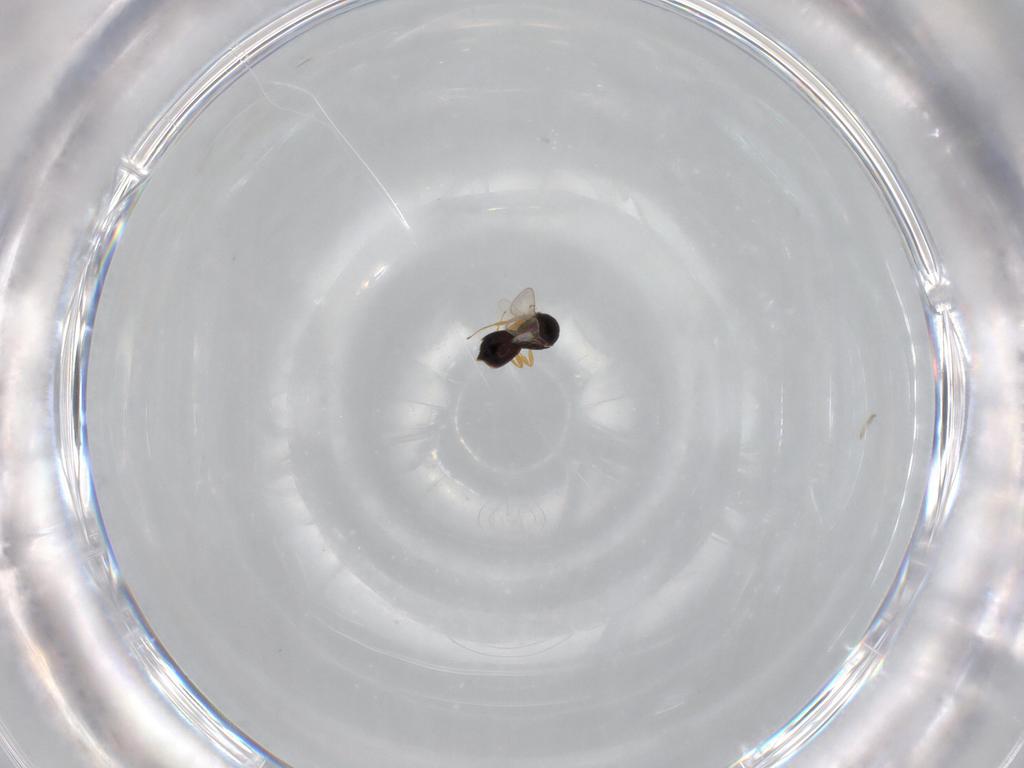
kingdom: Animalia
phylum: Arthropoda
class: Insecta
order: Hymenoptera
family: Scelionidae
